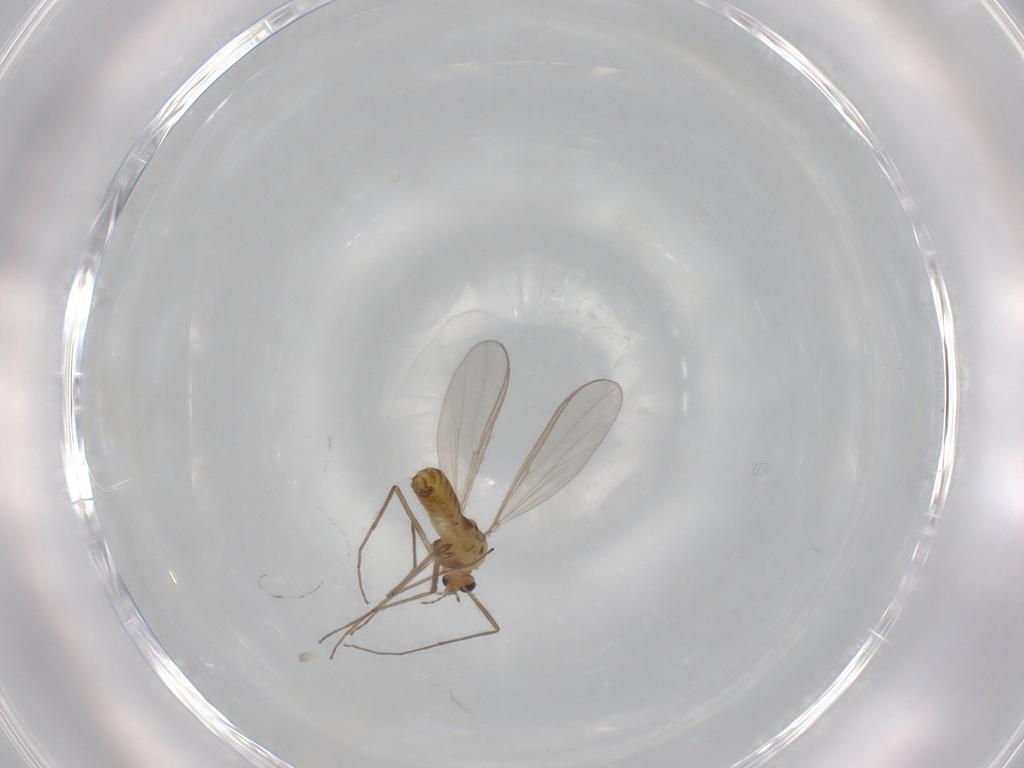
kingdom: Animalia
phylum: Arthropoda
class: Insecta
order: Diptera
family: Chironomidae
